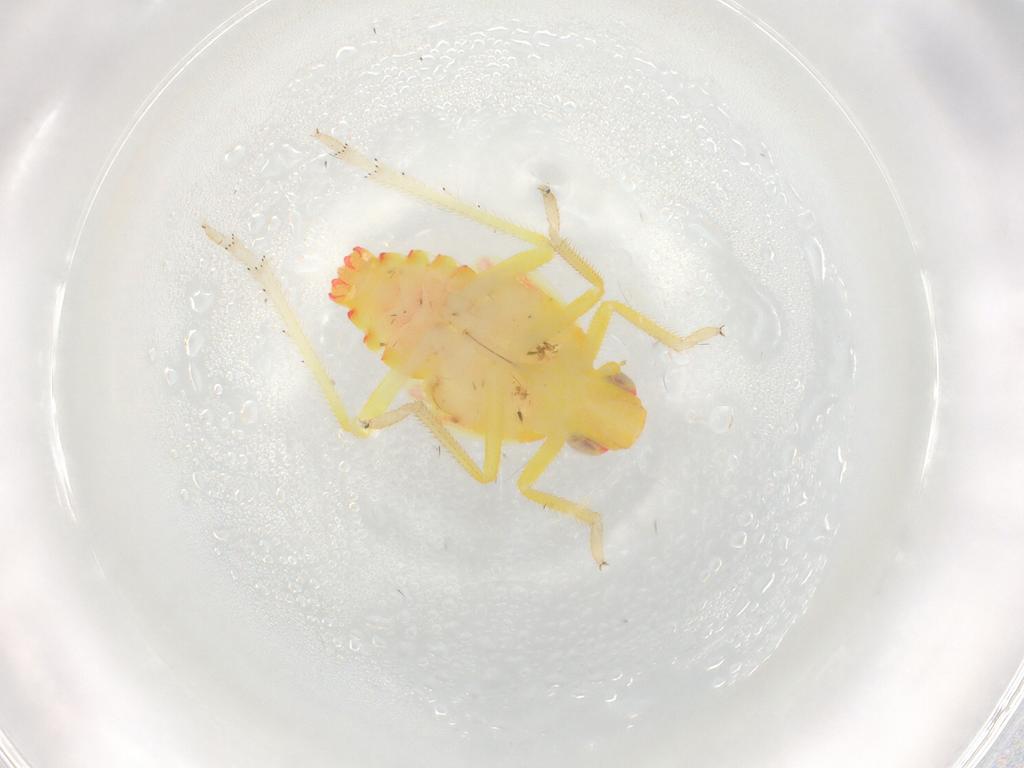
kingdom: Animalia
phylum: Arthropoda
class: Insecta
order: Hemiptera
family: Tropiduchidae
